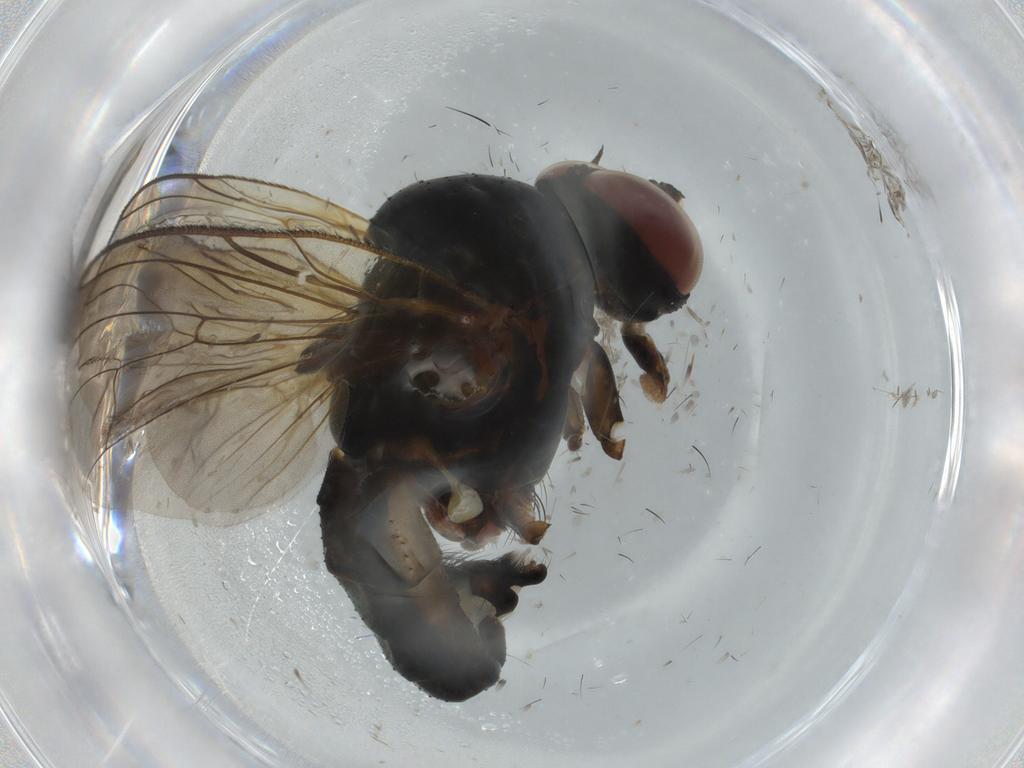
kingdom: Animalia
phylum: Arthropoda
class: Insecta
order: Diptera
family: Anthomyiidae
